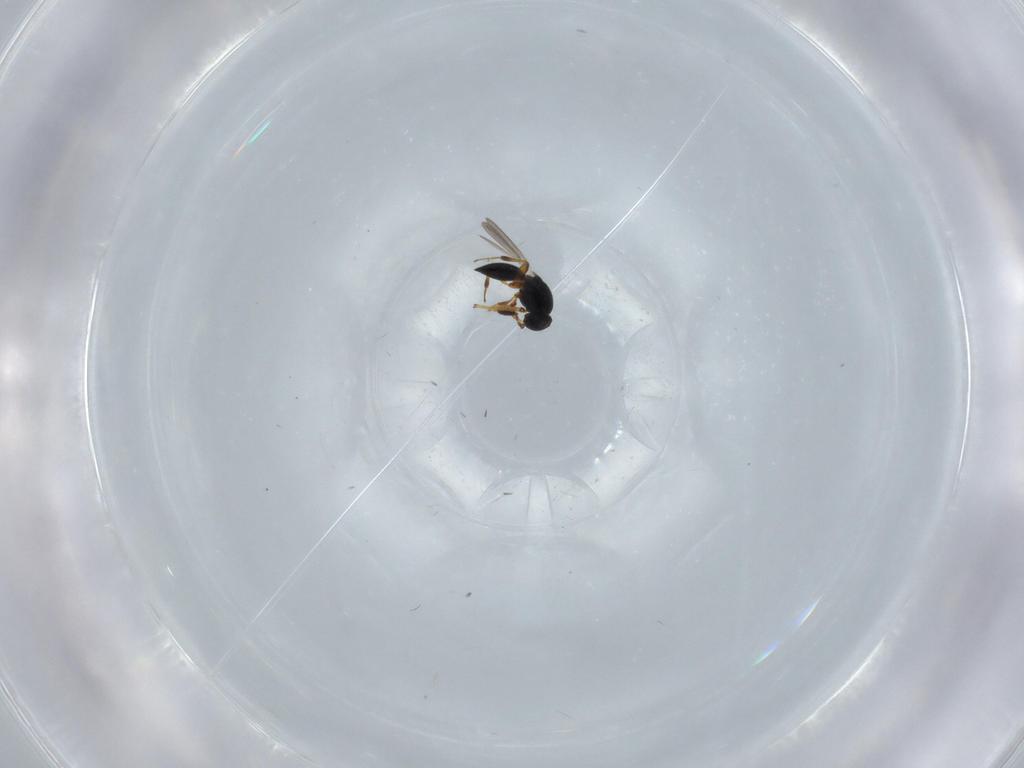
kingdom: Animalia
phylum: Arthropoda
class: Insecta
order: Hymenoptera
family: Platygastridae
